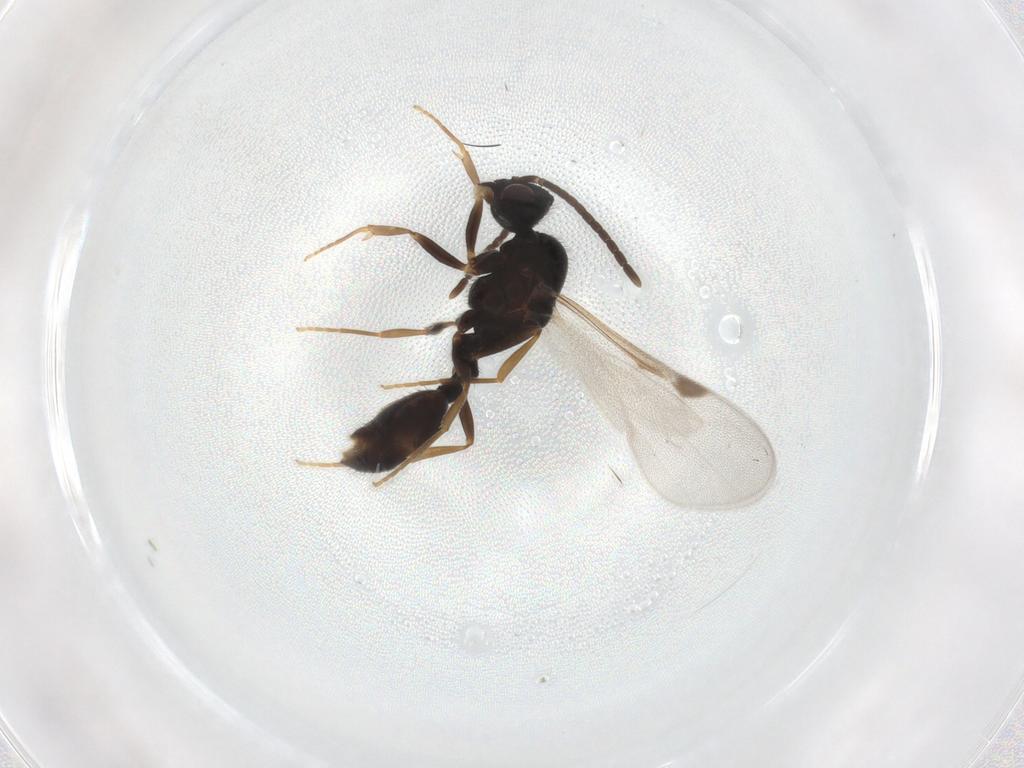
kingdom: Animalia
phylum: Arthropoda
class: Insecta
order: Hymenoptera
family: Formicidae
